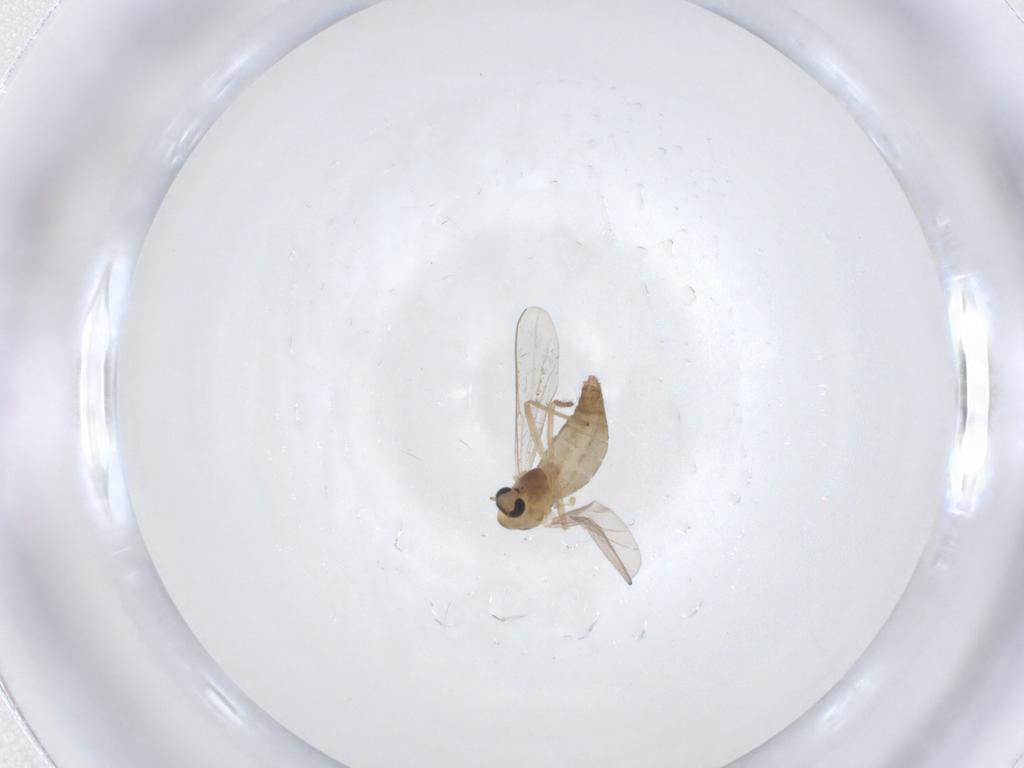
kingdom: Animalia
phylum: Arthropoda
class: Insecta
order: Diptera
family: Chironomidae
